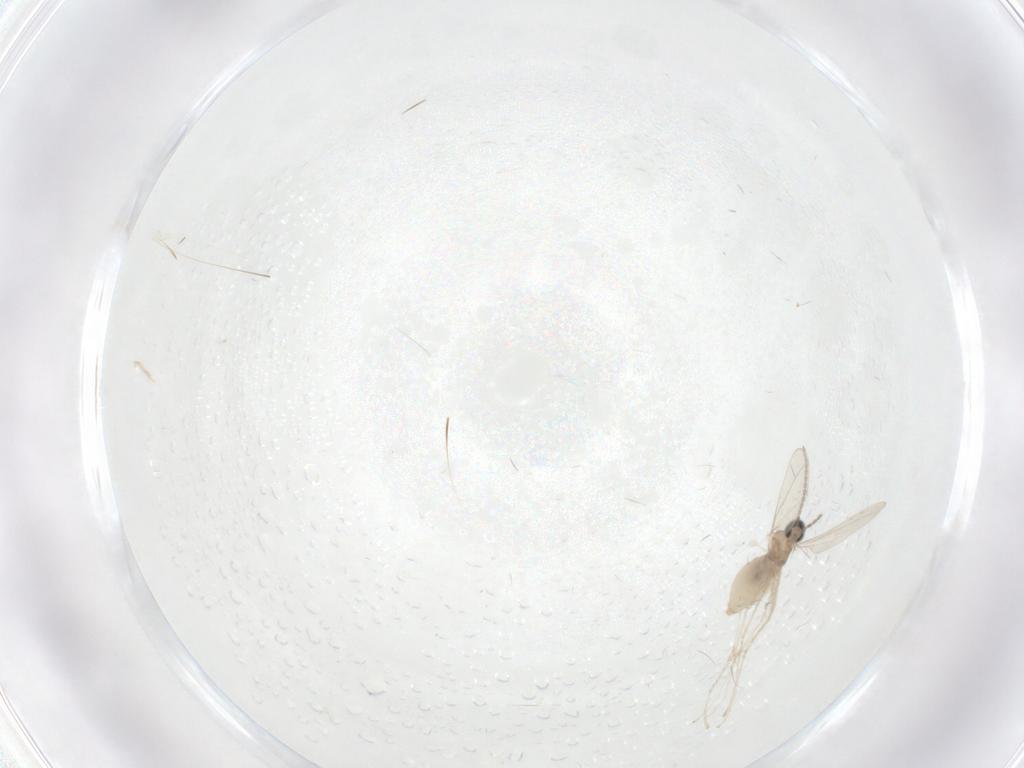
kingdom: Animalia
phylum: Arthropoda
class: Insecta
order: Diptera
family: Cecidomyiidae
